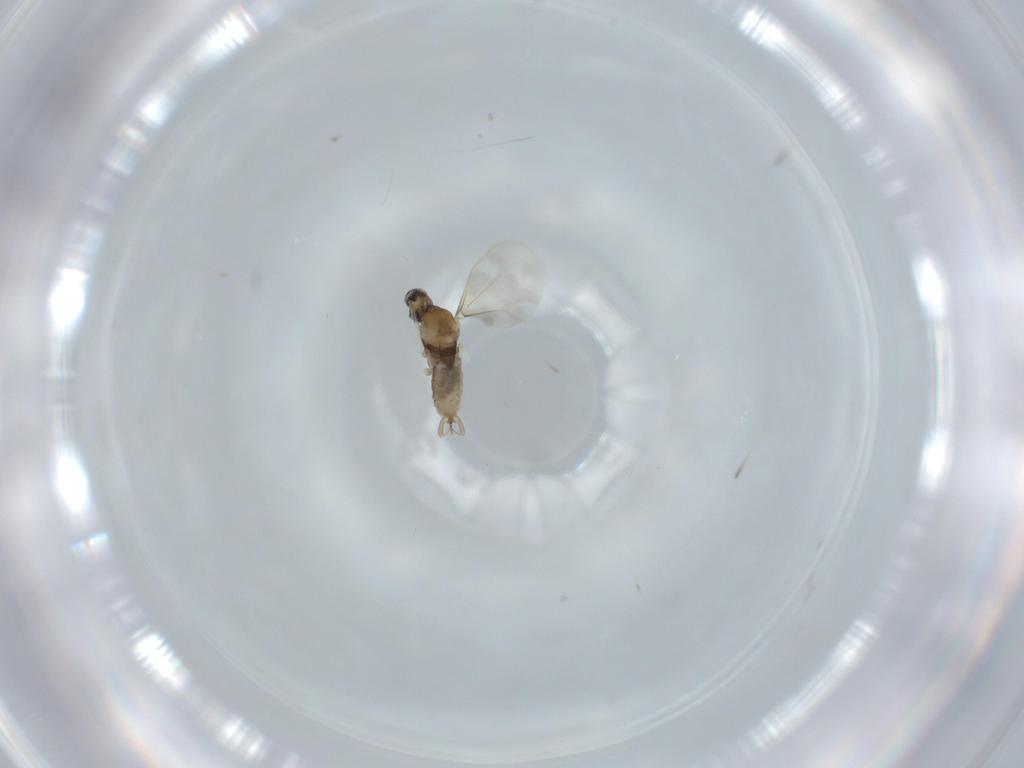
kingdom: Animalia
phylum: Arthropoda
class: Insecta
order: Diptera
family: Cecidomyiidae
